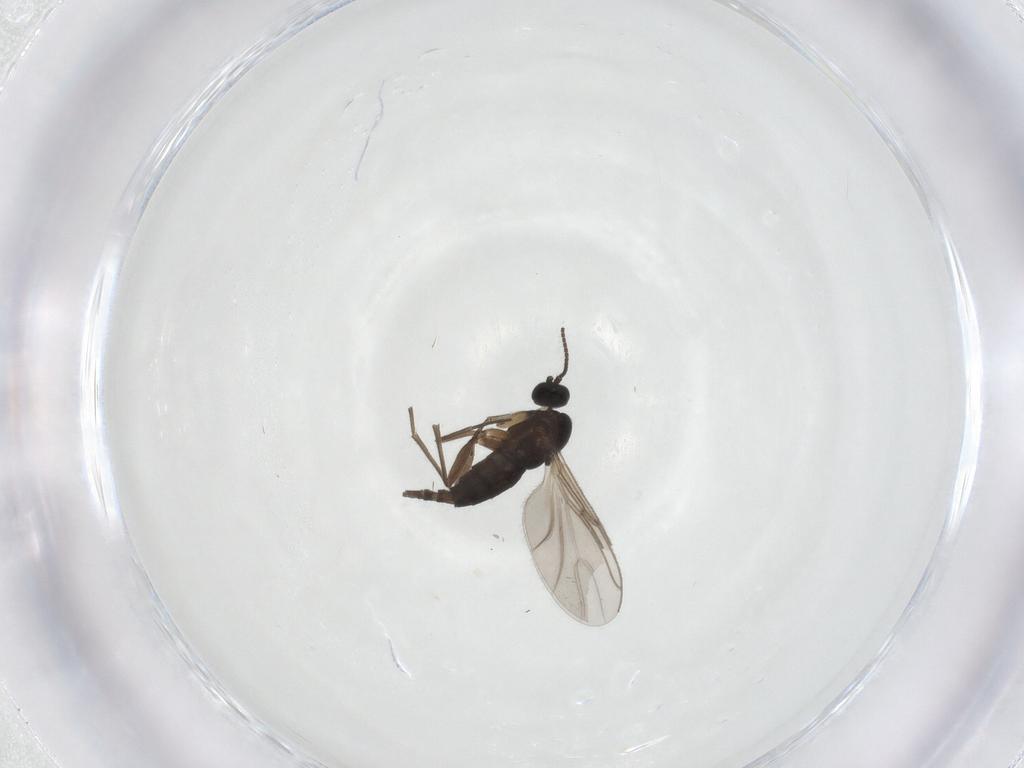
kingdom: Animalia
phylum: Arthropoda
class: Insecta
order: Diptera
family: Sciaridae
